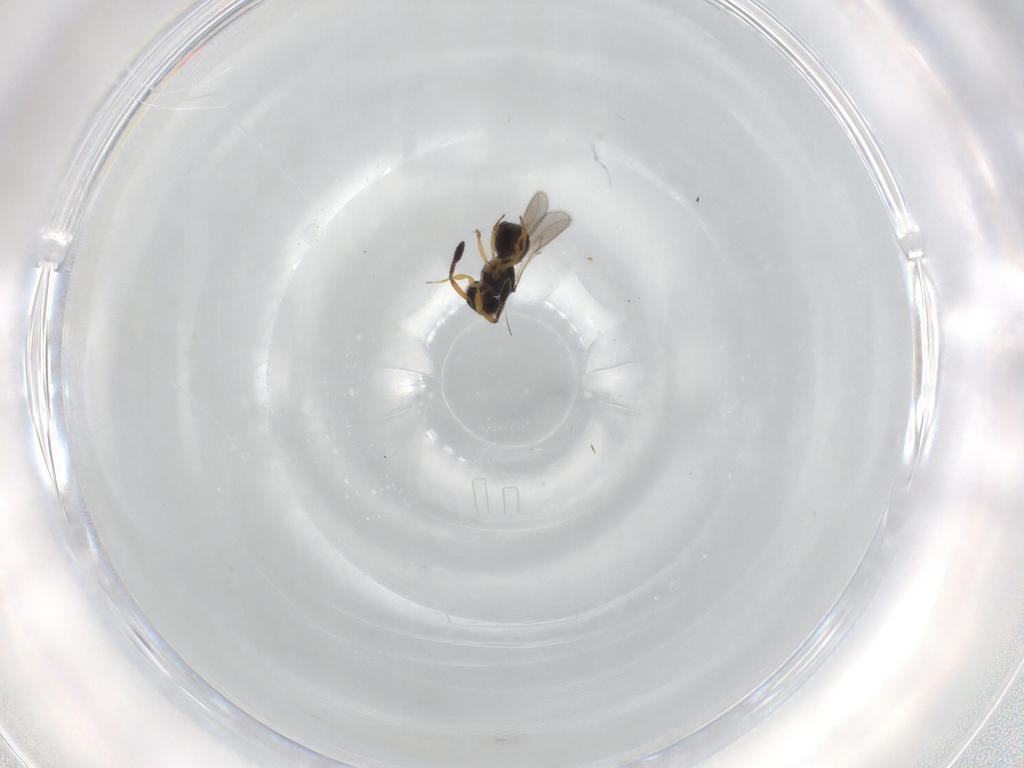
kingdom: Animalia
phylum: Arthropoda
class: Insecta
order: Hymenoptera
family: Scelionidae
